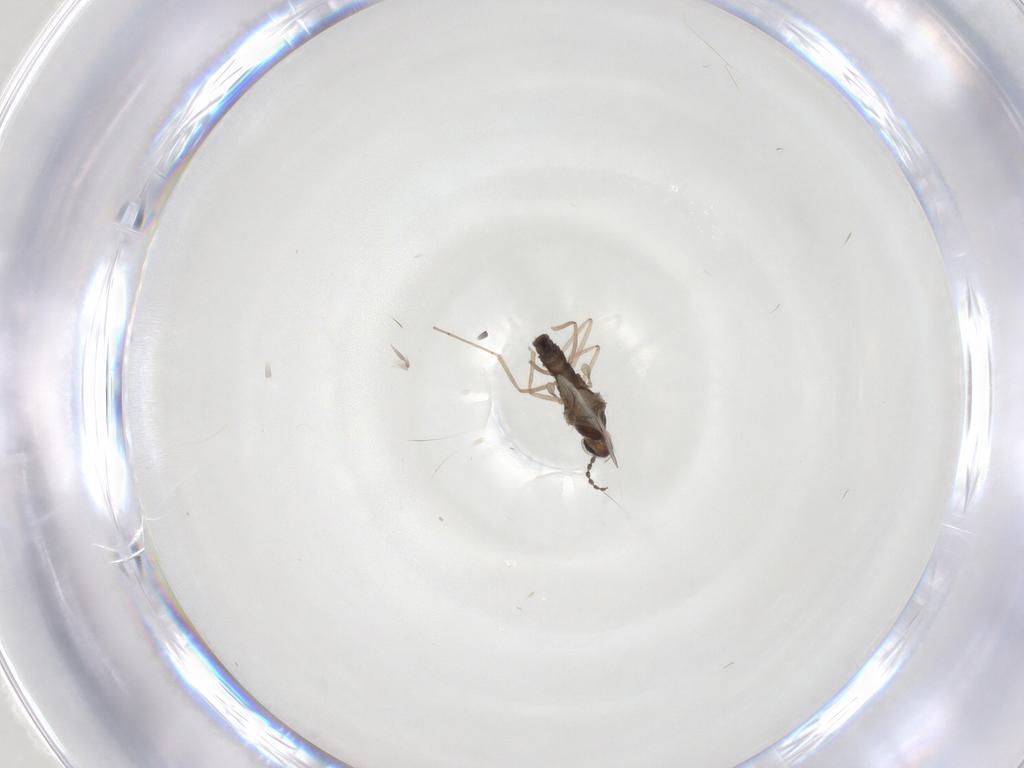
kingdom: Animalia
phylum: Arthropoda
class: Insecta
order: Diptera
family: Cecidomyiidae
